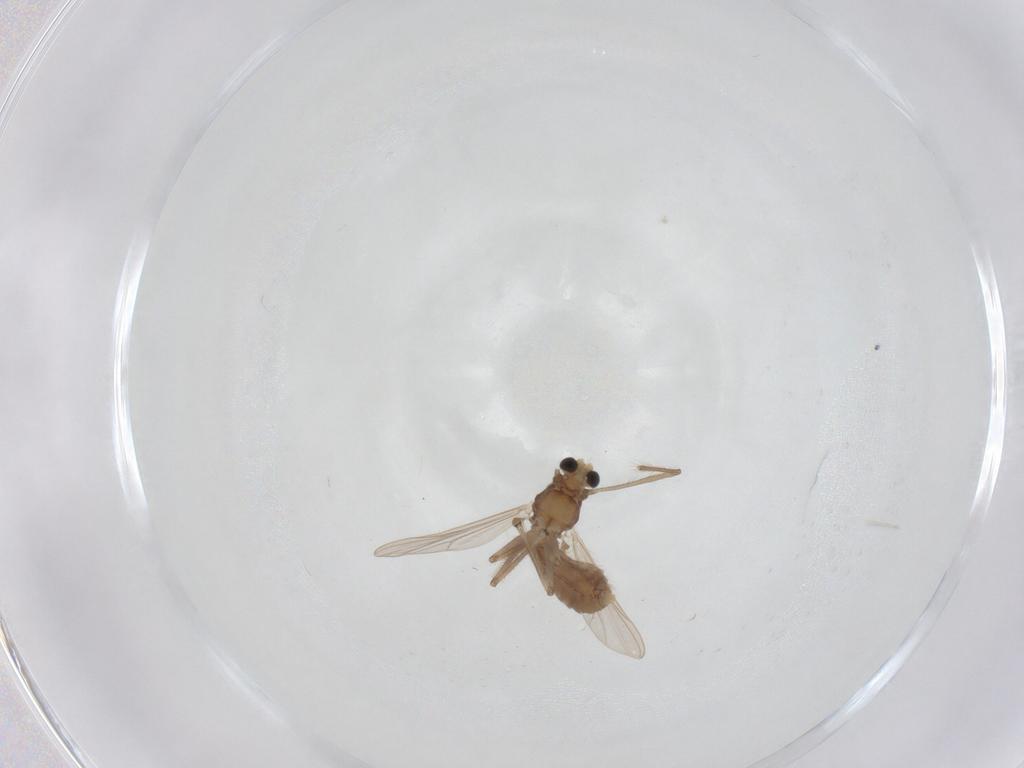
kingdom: Animalia
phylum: Arthropoda
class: Insecta
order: Diptera
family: Chironomidae
